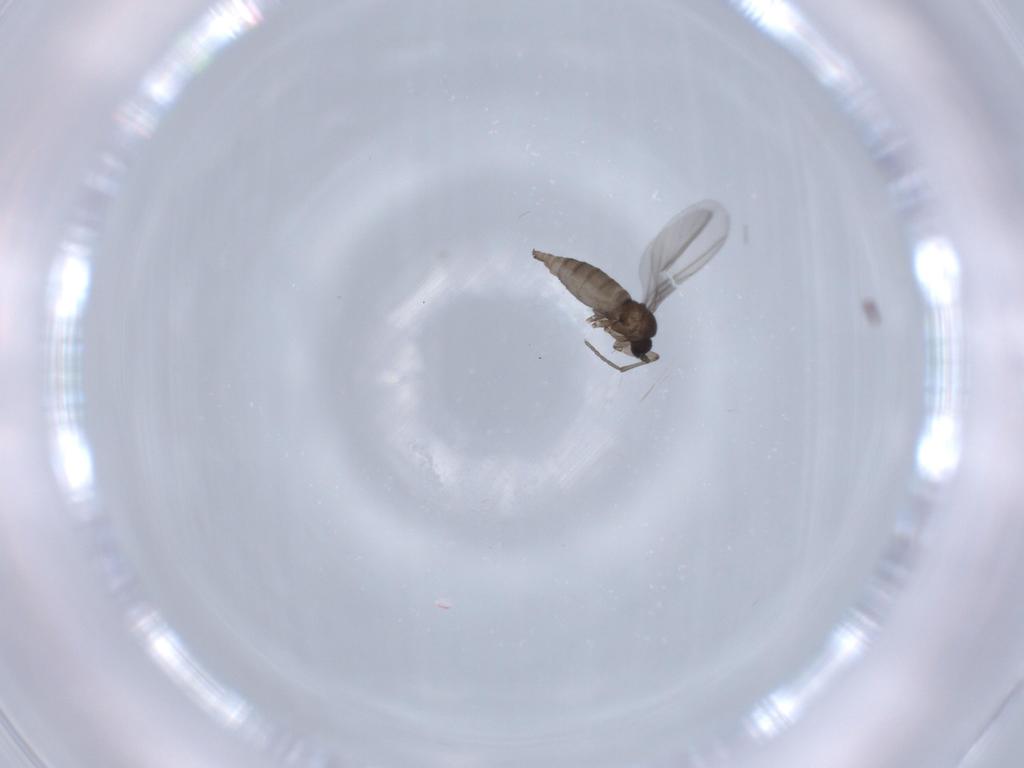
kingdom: Animalia
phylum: Arthropoda
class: Insecta
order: Diptera
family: Sciaridae
